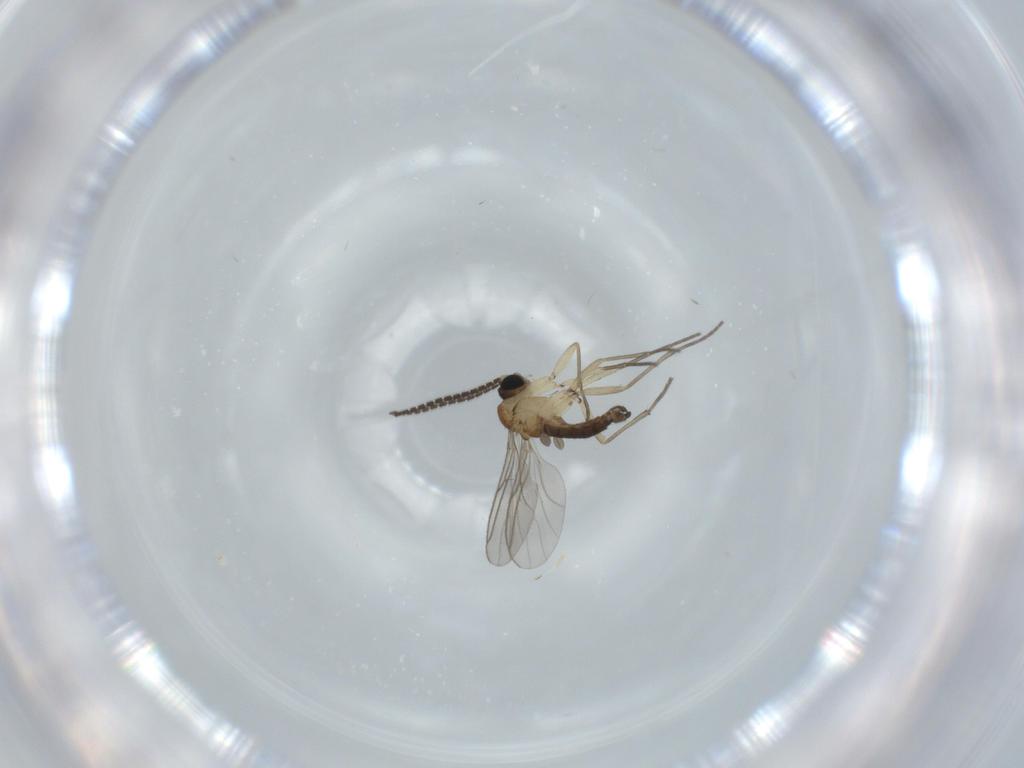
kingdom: Animalia
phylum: Arthropoda
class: Insecta
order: Diptera
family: Sciaridae
